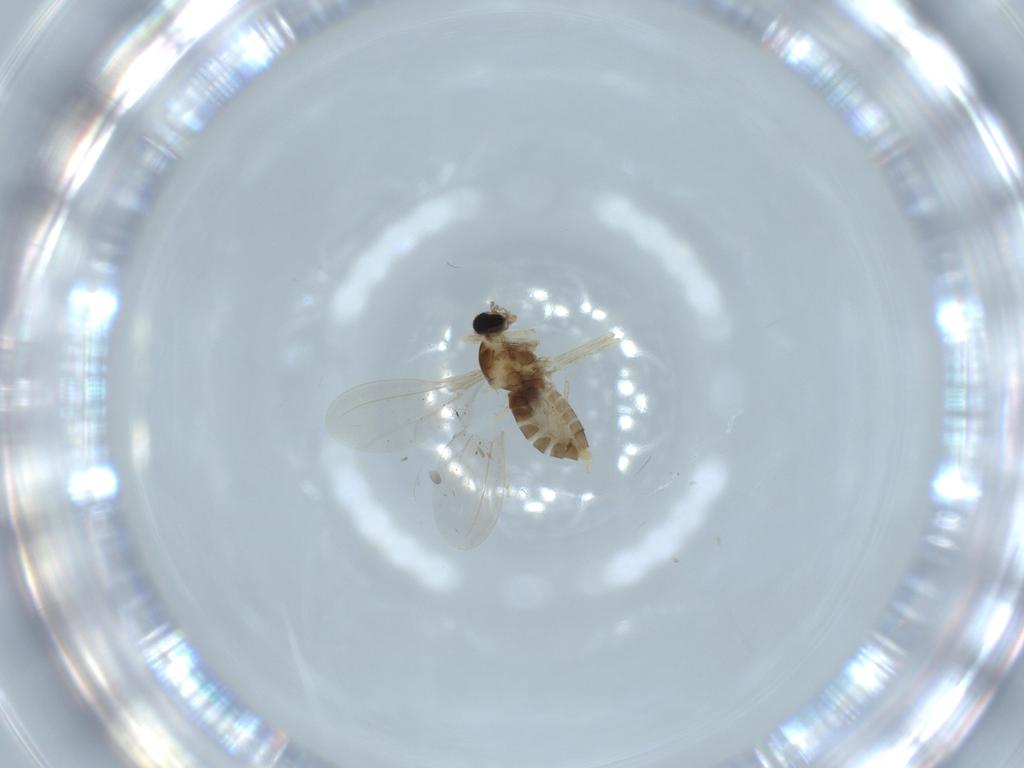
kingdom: Animalia
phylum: Arthropoda
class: Insecta
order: Diptera
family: Cecidomyiidae
